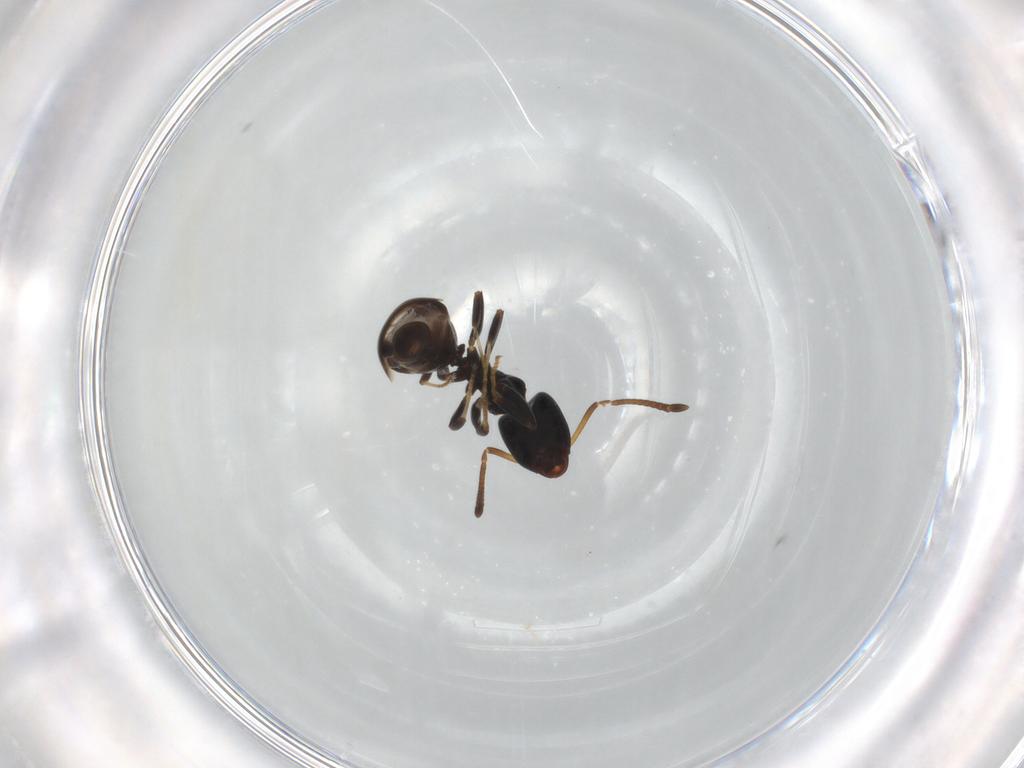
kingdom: Animalia
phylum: Arthropoda
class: Insecta
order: Hymenoptera
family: Formicidae
